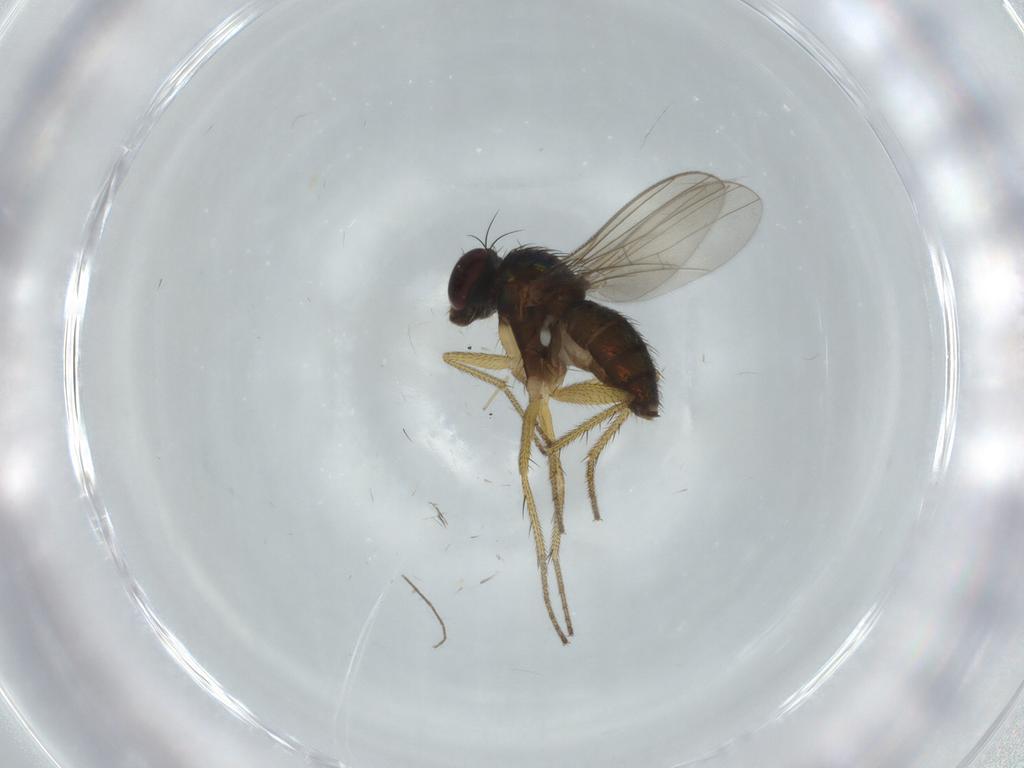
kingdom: Animalia
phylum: Arthropoda
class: Insecta
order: Diptera
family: Dolichopodidae
